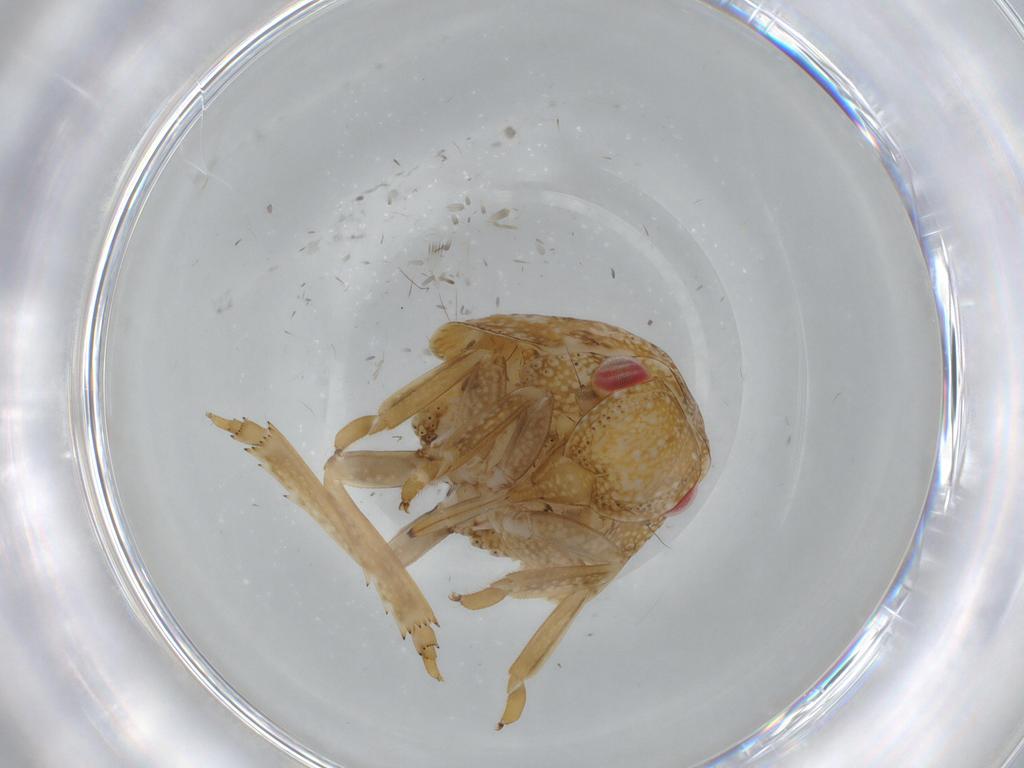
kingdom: Animalia
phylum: Arthropoda
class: Insecta
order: Hemiptera
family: Acanaloniidae
